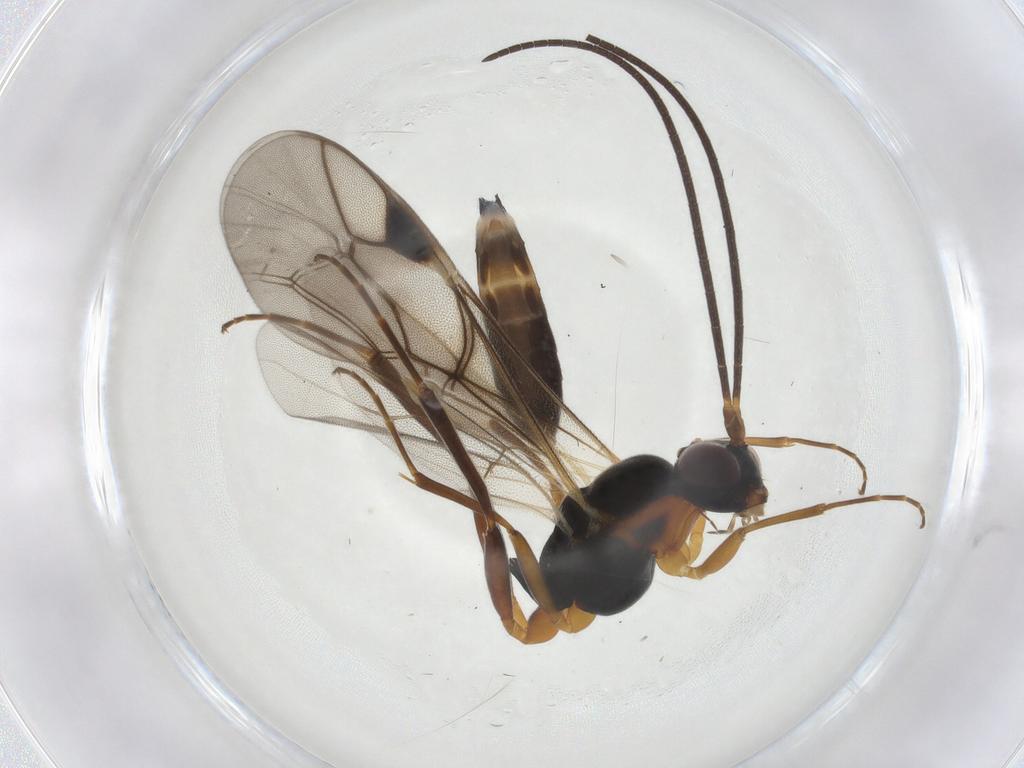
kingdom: Animalia
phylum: Arthropoda
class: Insecta
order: Hymenoptera
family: Ichneumonidae
